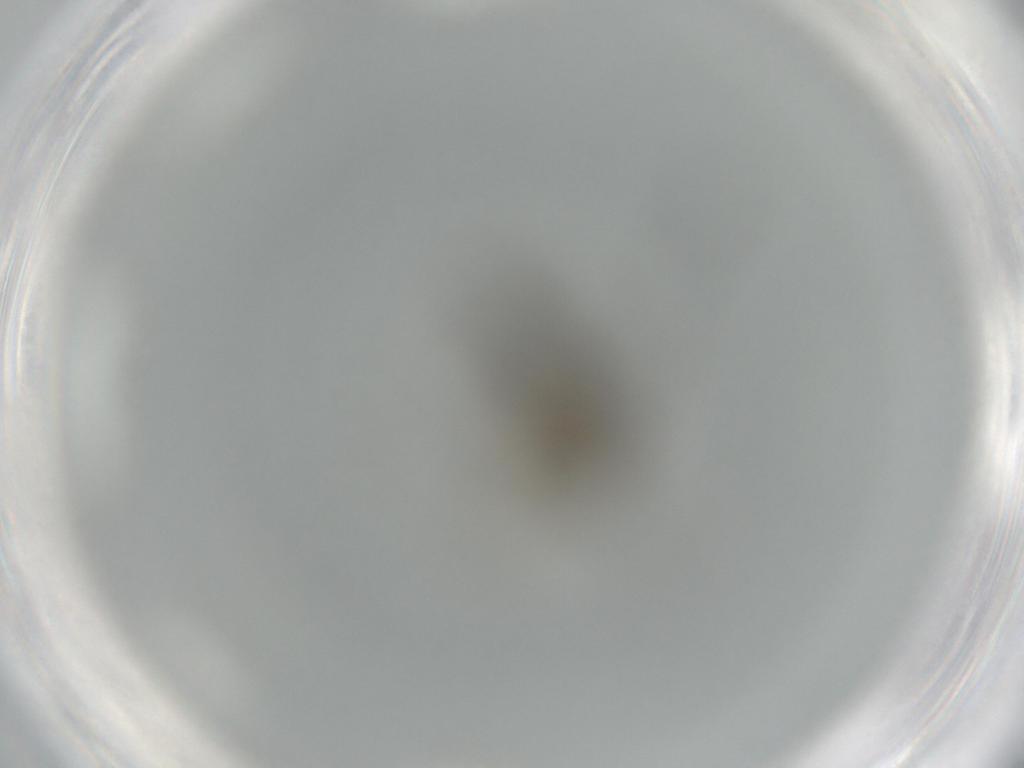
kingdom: Animalia
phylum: Arthropoda
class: Insecta
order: Diptera
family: Sciaridae
